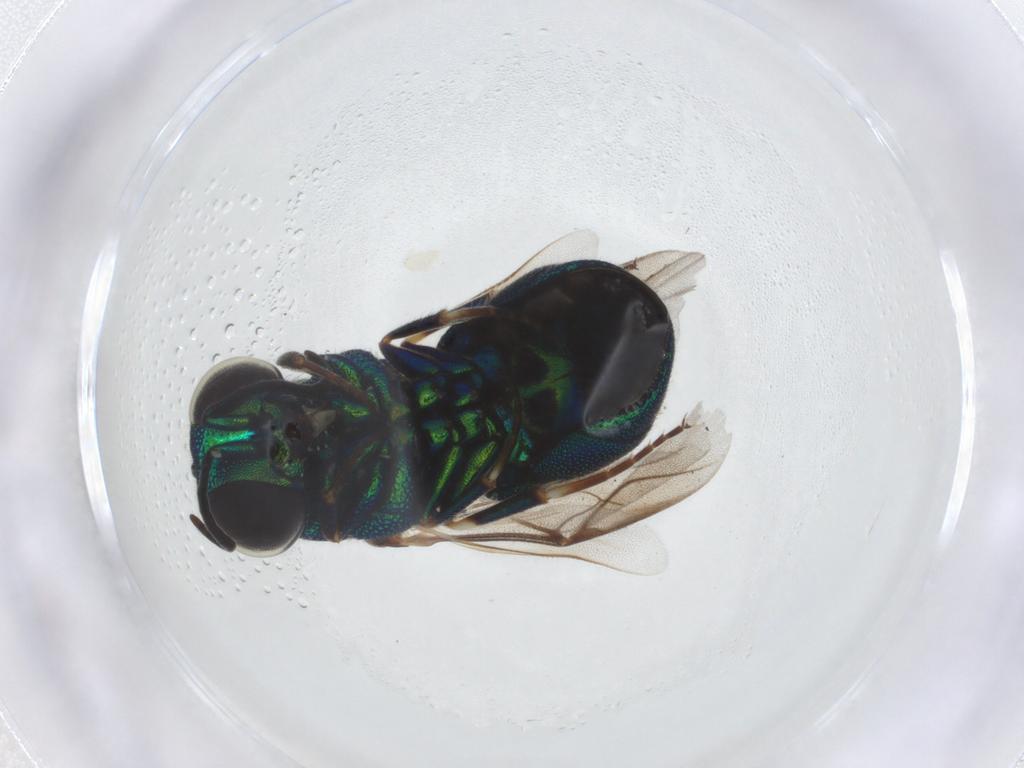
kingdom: Animalia
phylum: Arthropoda
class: Insecta
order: Hymenoptera
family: Chrysididae
